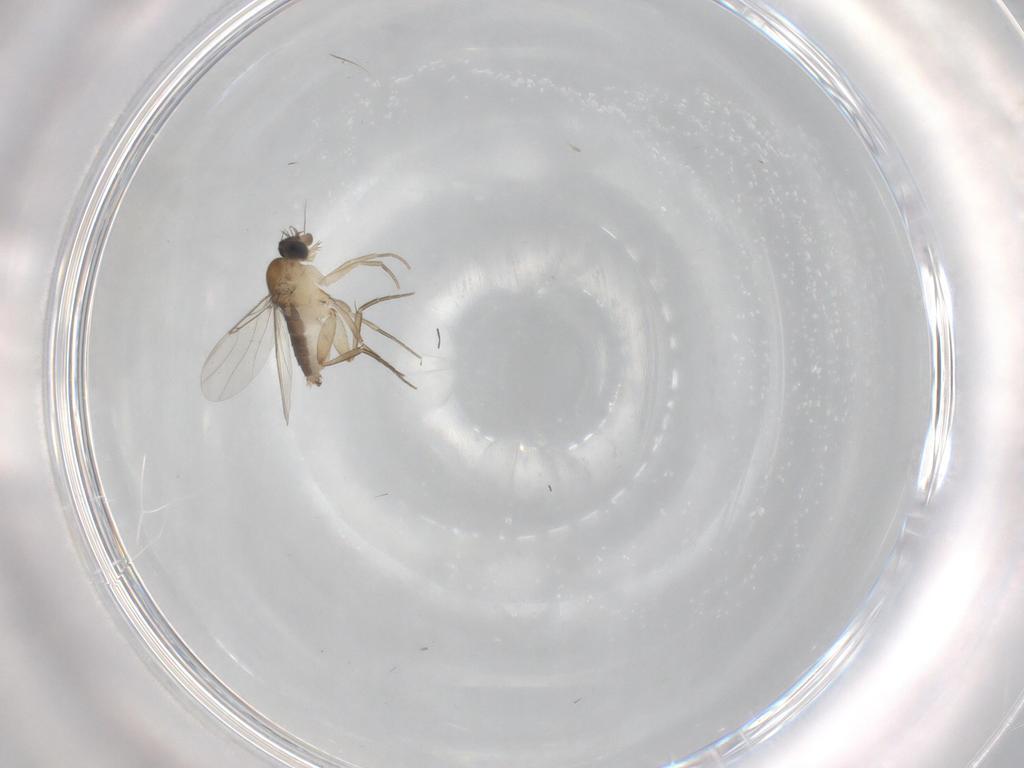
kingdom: Animalia
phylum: Arthropoda
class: Insecta
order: Diptera
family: Phoridae
